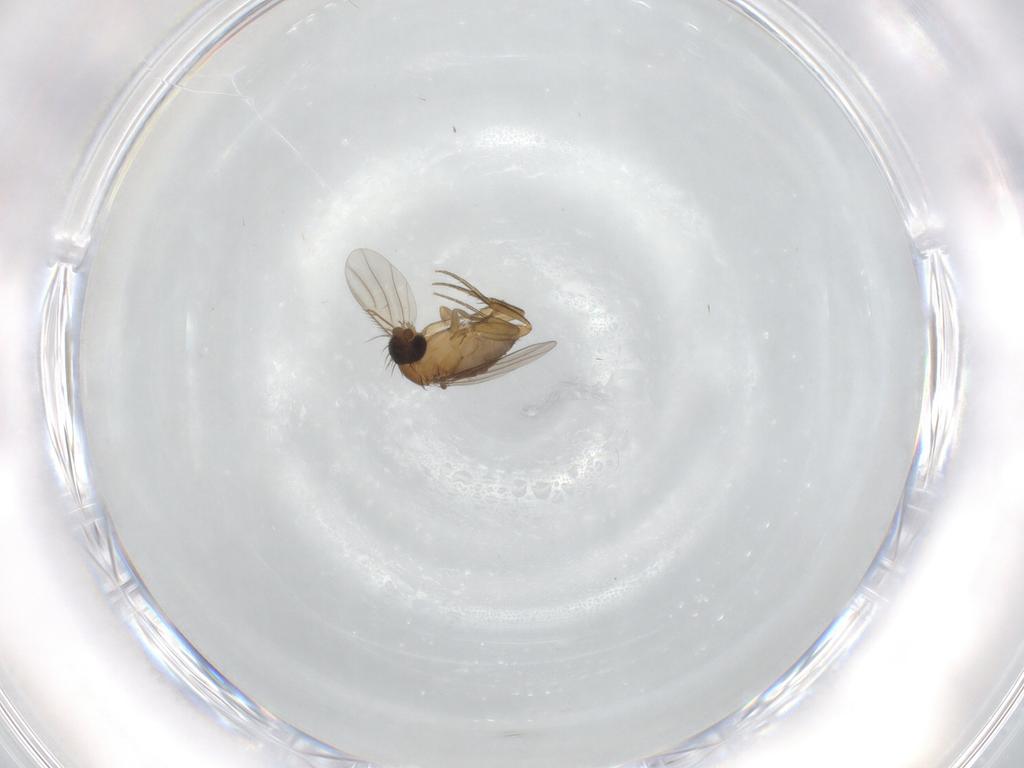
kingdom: Animalia
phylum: Arthropoda
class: Insecta
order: Diptera
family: Phoridae
